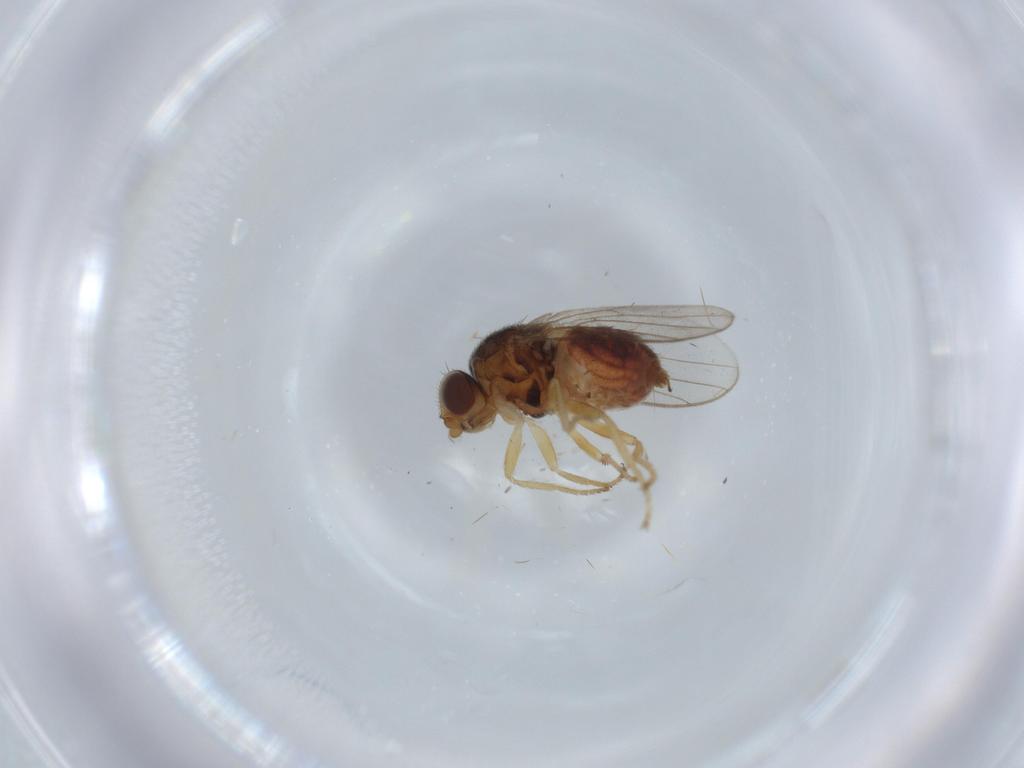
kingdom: Animalia
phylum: Arthropoda
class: Insecta
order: Diptera
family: Chloropidae
